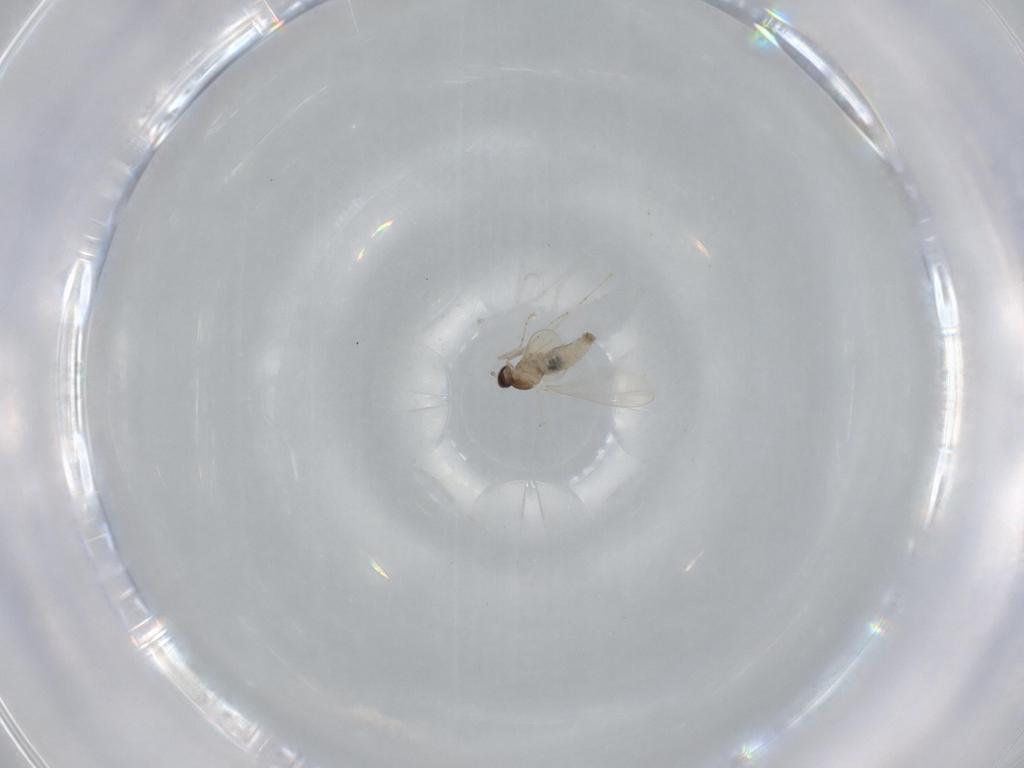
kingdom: Animalia
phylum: Arthropoda
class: Insecta
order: Diptera
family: Cecidomyiidae
